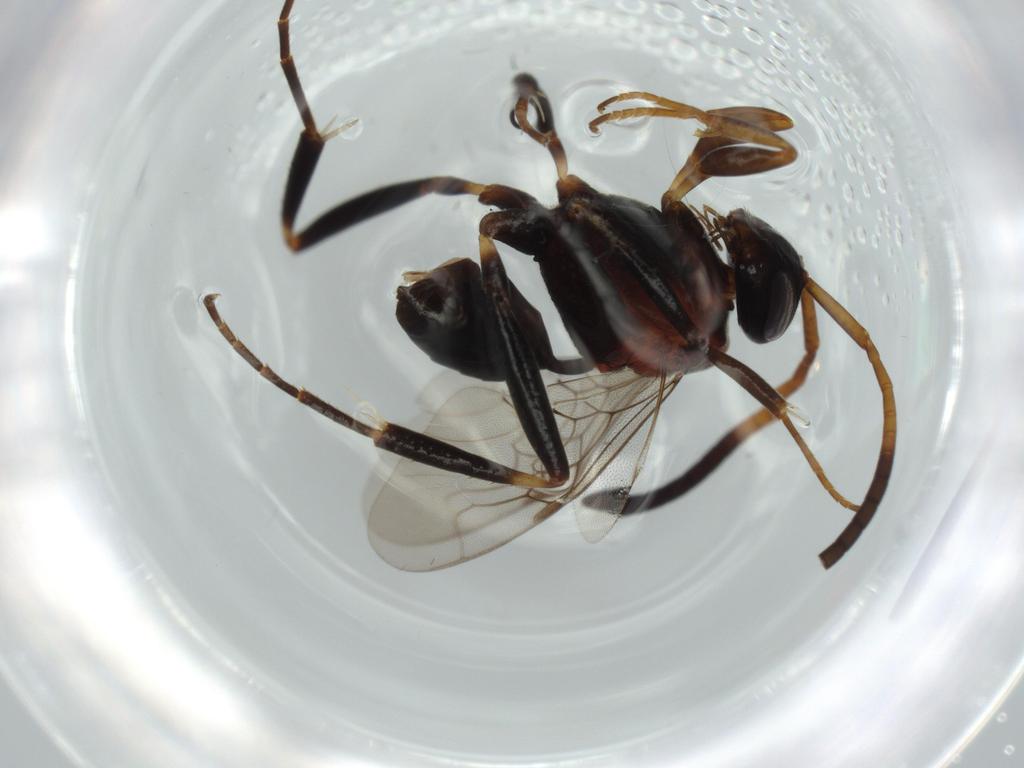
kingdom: Animalia
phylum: Arthropoda
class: Insecta
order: Hymenoptera
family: Evaniidae
